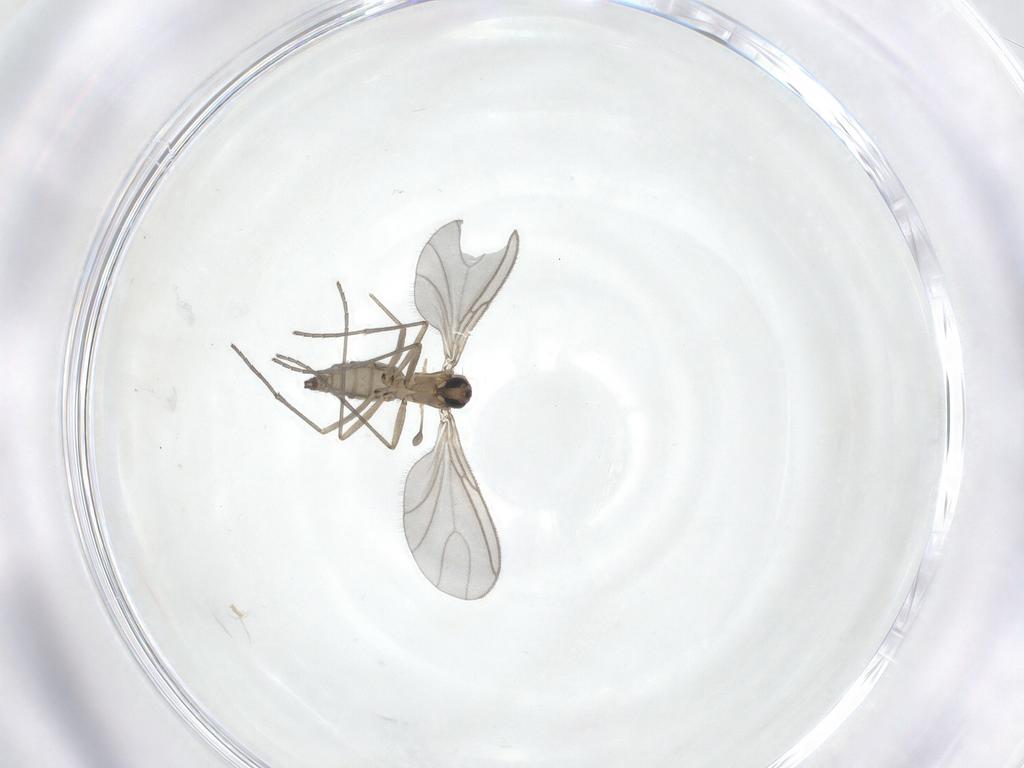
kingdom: Animalia
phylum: Arthropoda
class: Insecta
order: Diptera
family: Sciaridae
